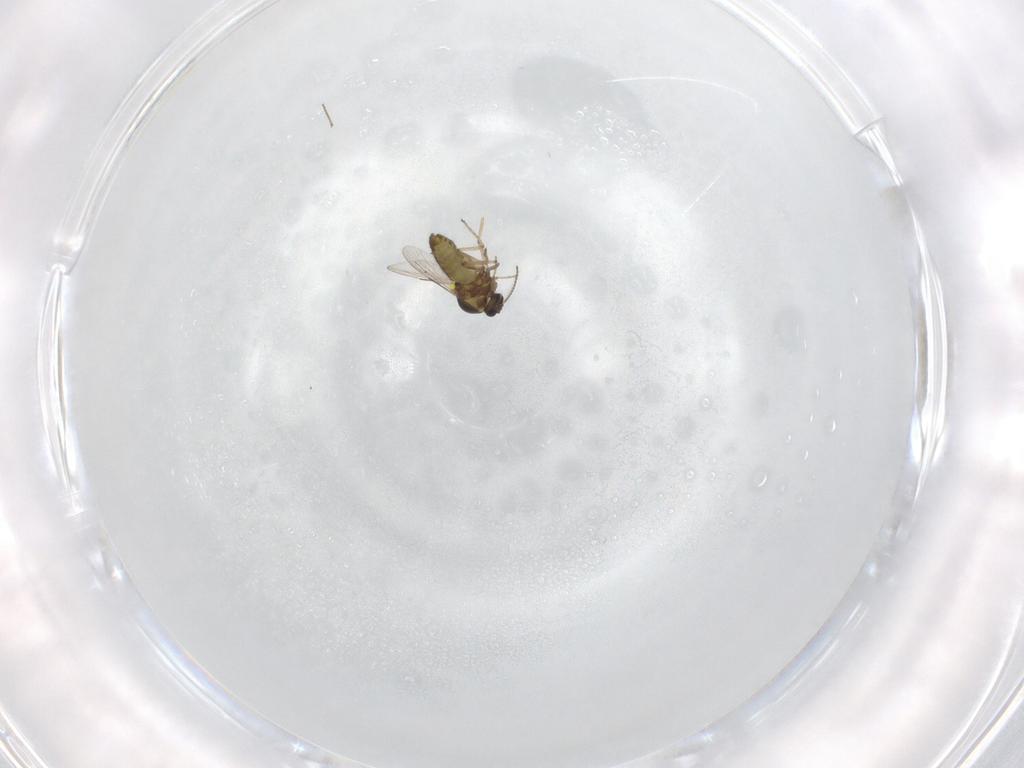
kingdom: Animalia
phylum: Arthropoda
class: Insecta
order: Diptera
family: Ceratopogonidae
